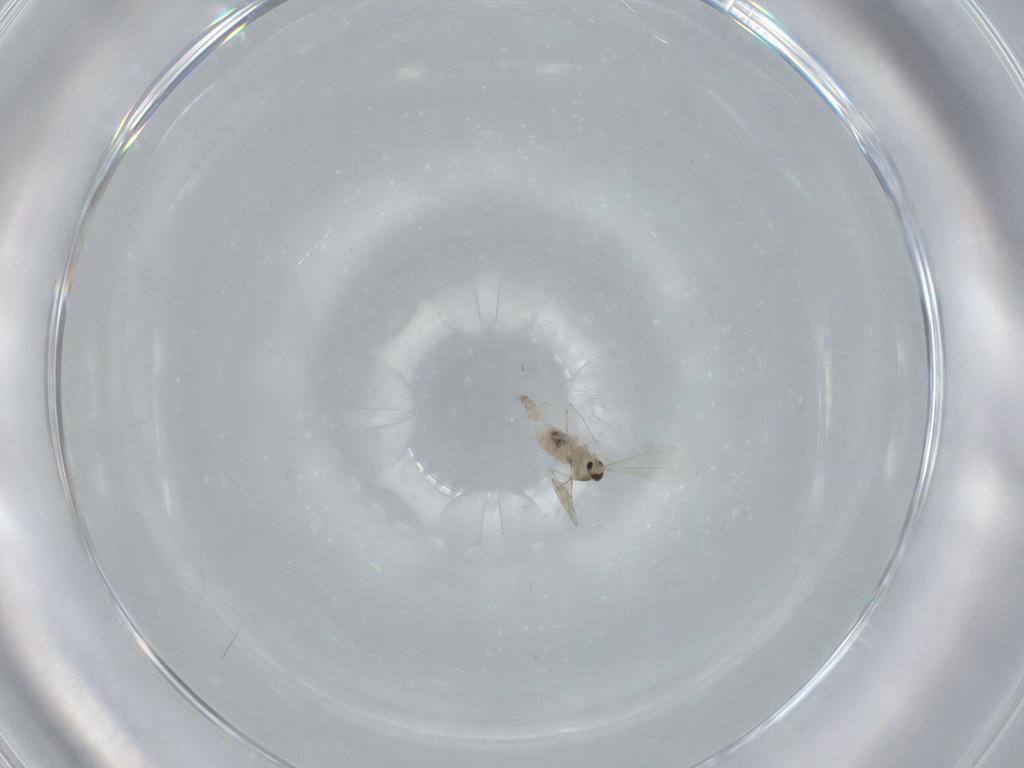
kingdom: Animalia
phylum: Arthropoda
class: Insecta
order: Diptera
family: Cecidomyiidae
